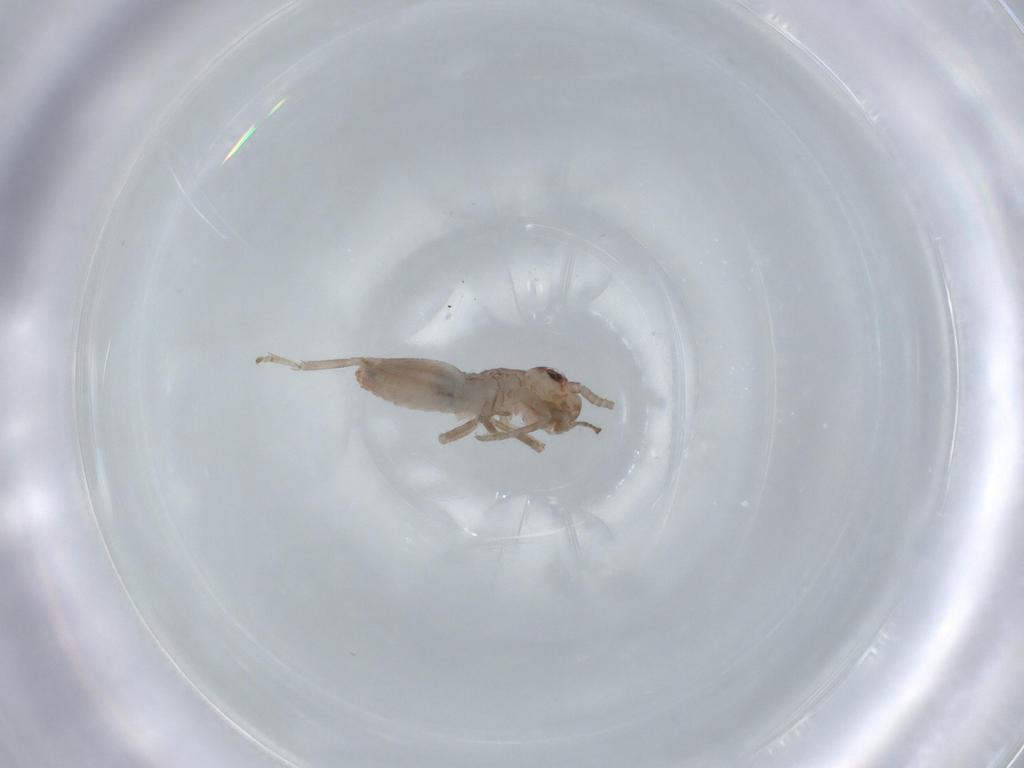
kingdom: Animalia
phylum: Arthropoda
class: Insecta
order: Orthoptera
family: Mogoplistidae
